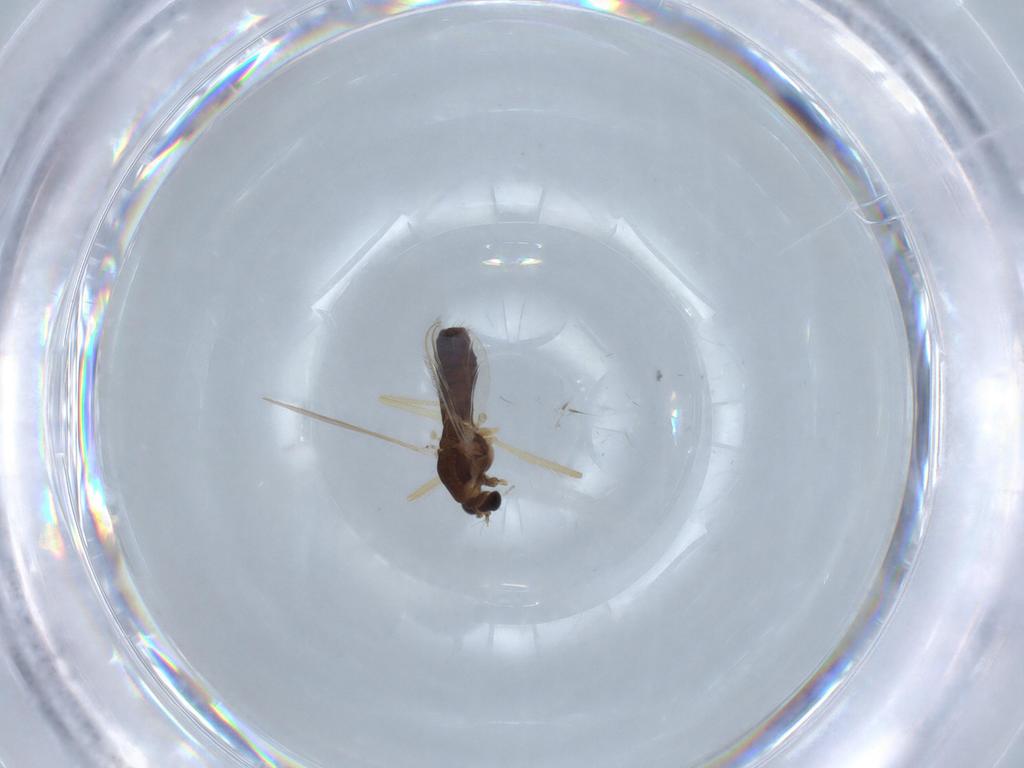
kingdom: Animalia
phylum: Arthropoda
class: Insecta
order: Diptera
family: Chironomidae
